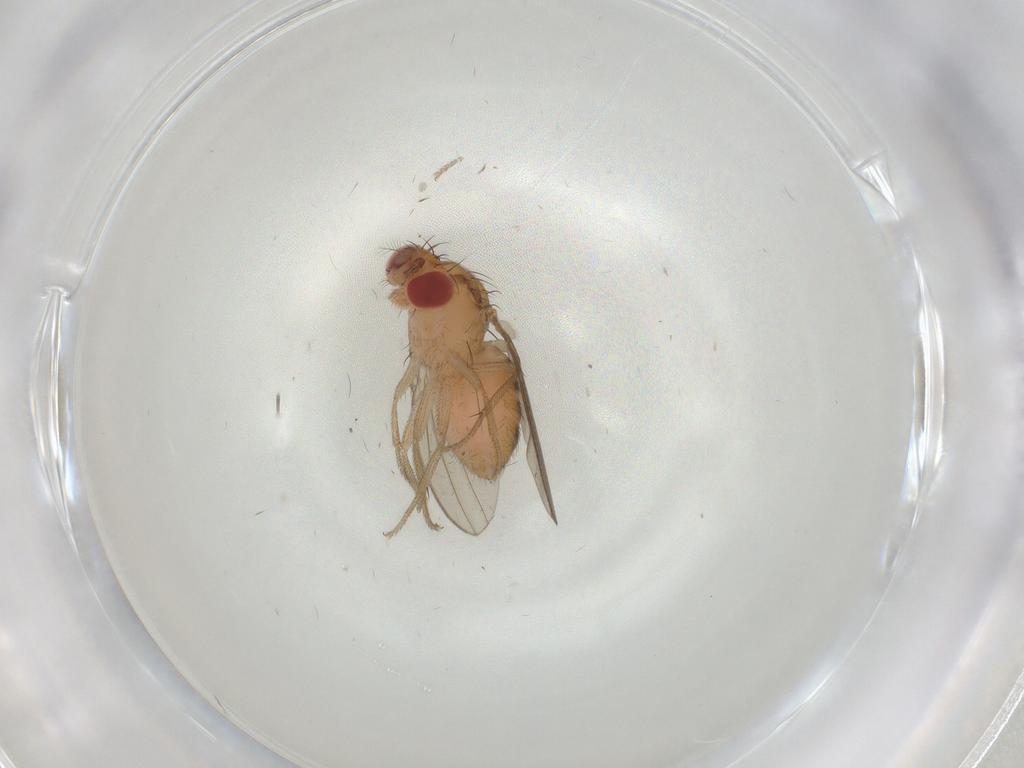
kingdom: Animalia
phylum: Arthropoda
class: Insecta
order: Diptera
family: Drosophilidae
